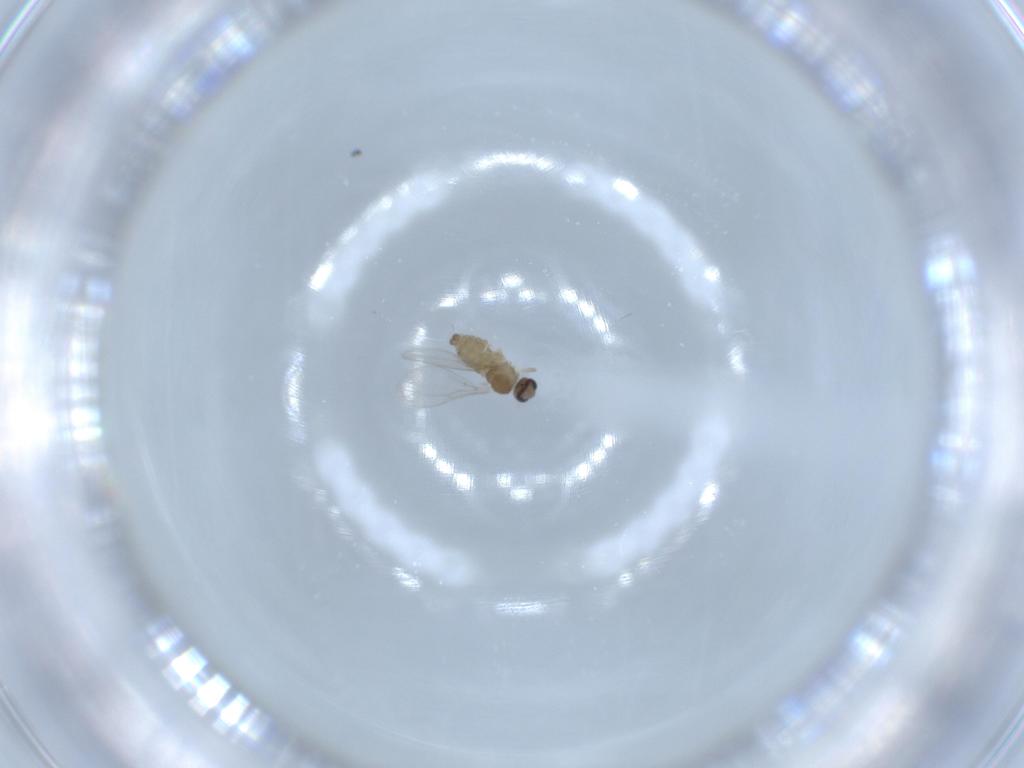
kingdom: Animalia
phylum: Arthropoda
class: Insecta
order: Diptera
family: Cecidomyiidae
